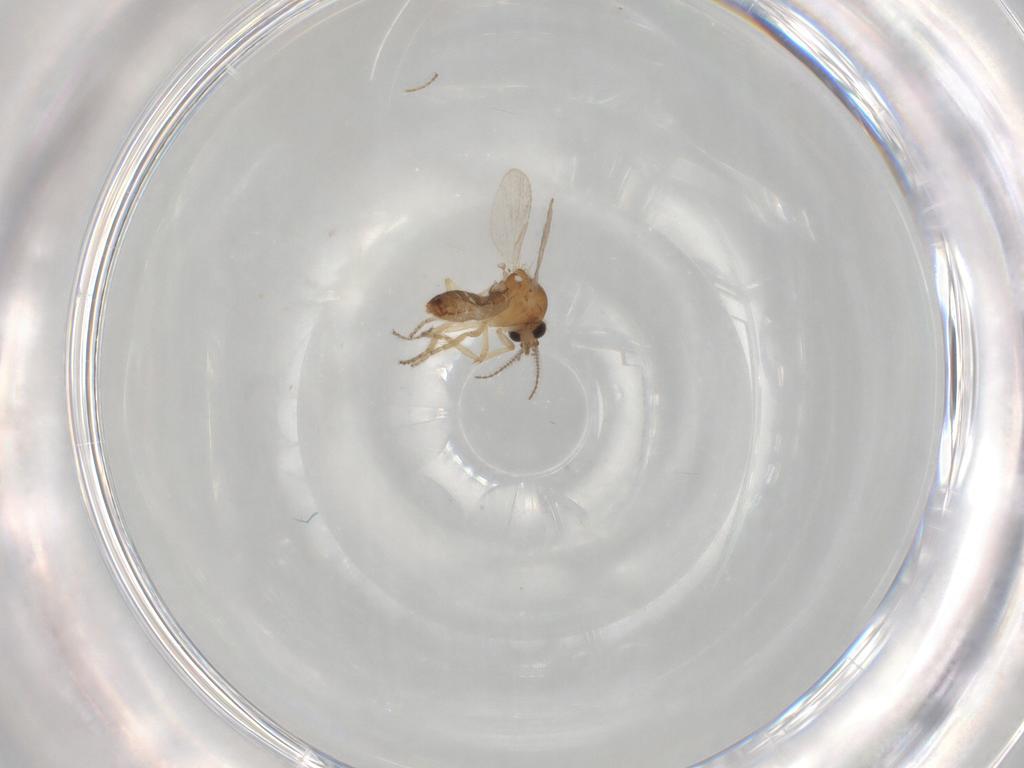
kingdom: Animalia
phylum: Arthropoda
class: Insecta
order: Diptera
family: Ceratopogonidae
